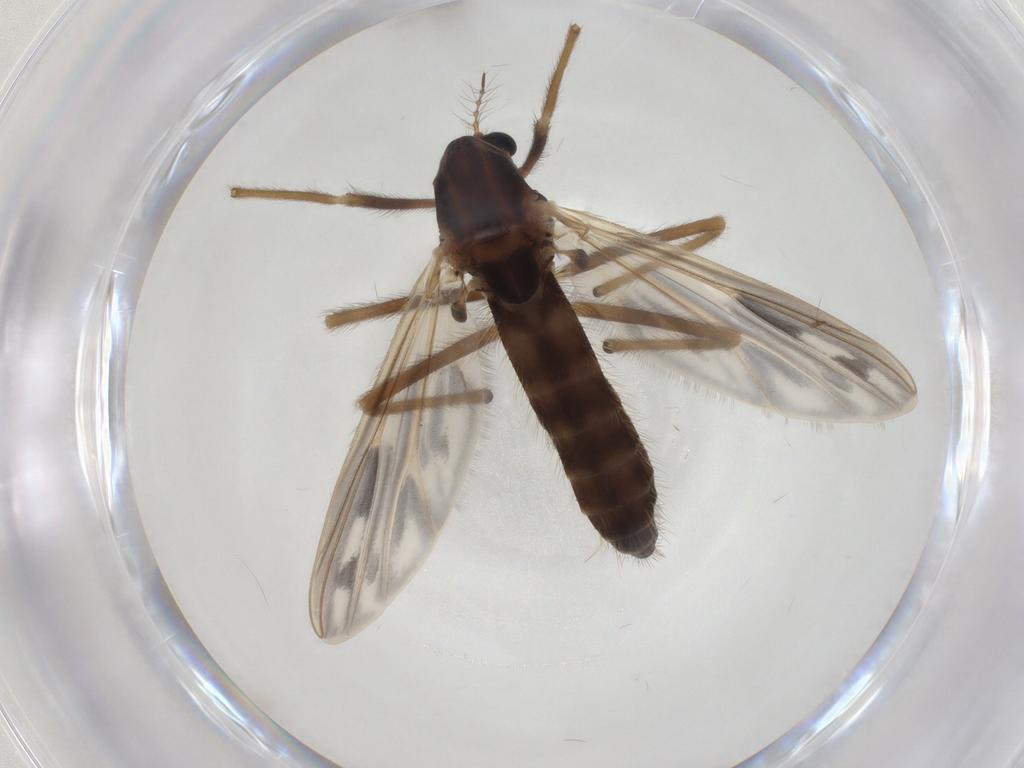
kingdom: Animalia
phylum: Arthropoda
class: Insecta
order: Diptera
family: Chironomidae
